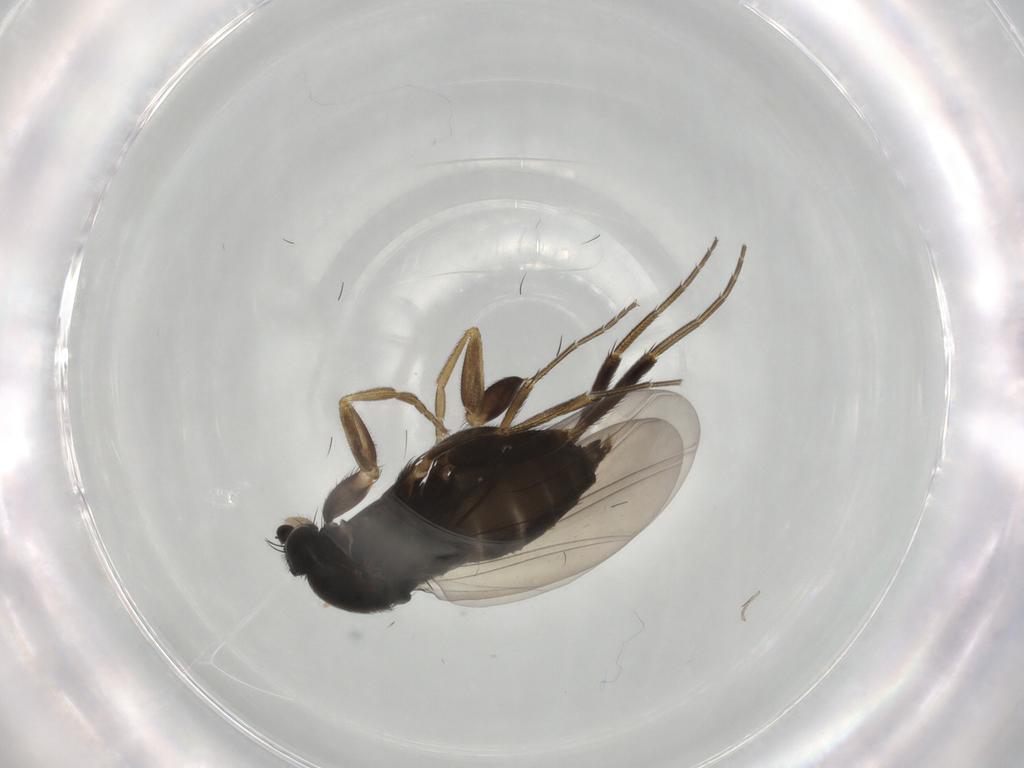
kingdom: Animalia
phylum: Arthropoda
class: Insecta
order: Diptera
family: Phoridae
